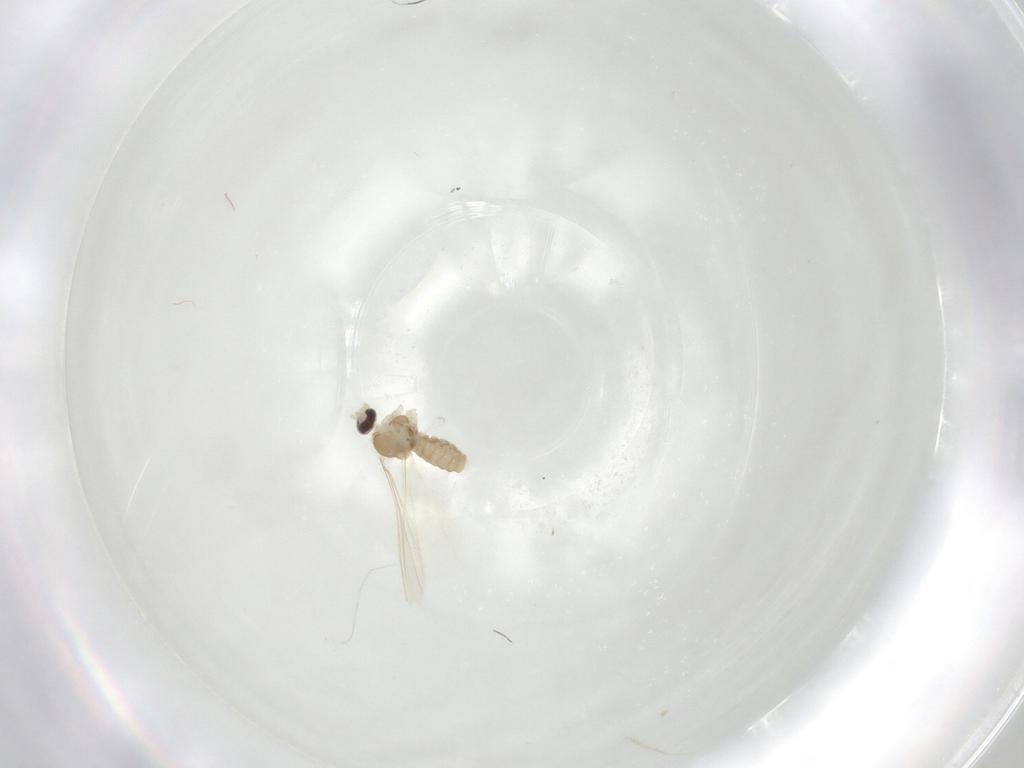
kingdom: Animalia
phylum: Arthropoda
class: Insecta
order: Diptera
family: Cecidomyiidae
